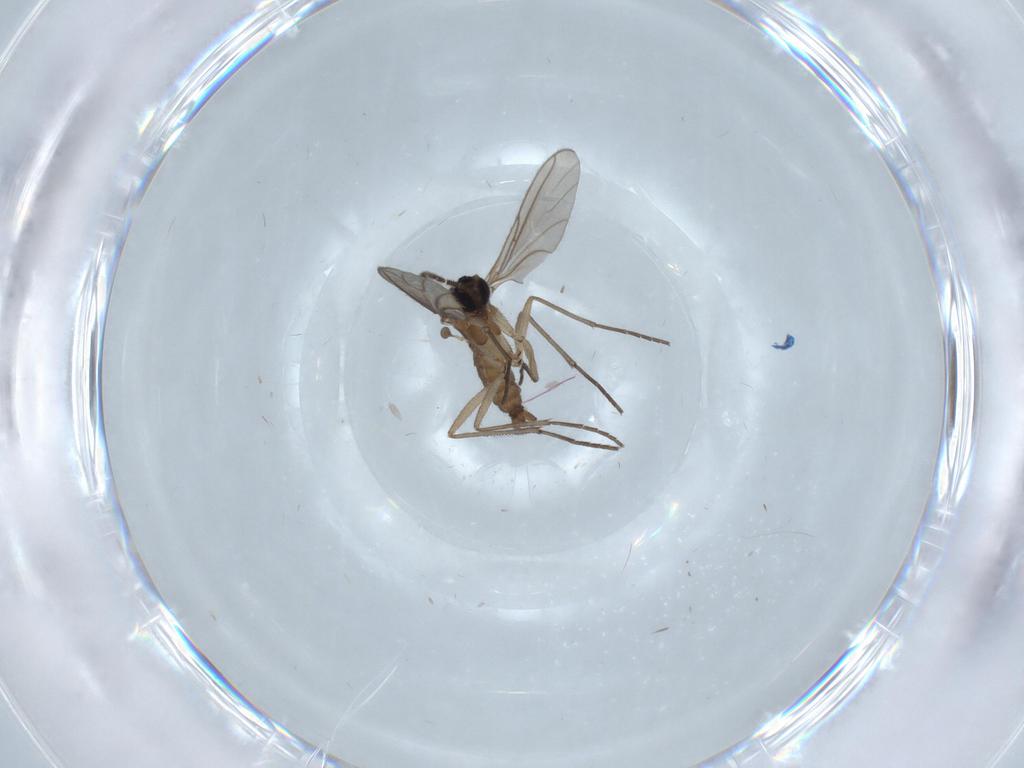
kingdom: Animalia
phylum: Arthropoda
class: Insecta
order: Diptera
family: Sciaridae
